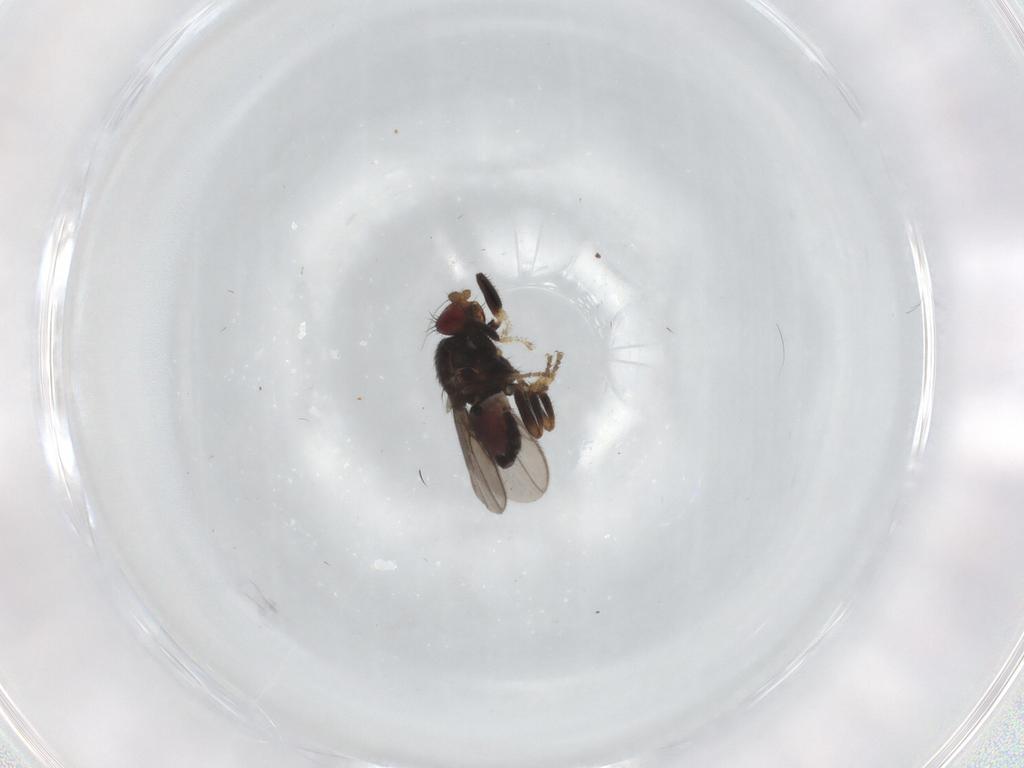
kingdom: Animalia
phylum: Arthropoda
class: Insecta
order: Diptera
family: Sphaeroceridae
